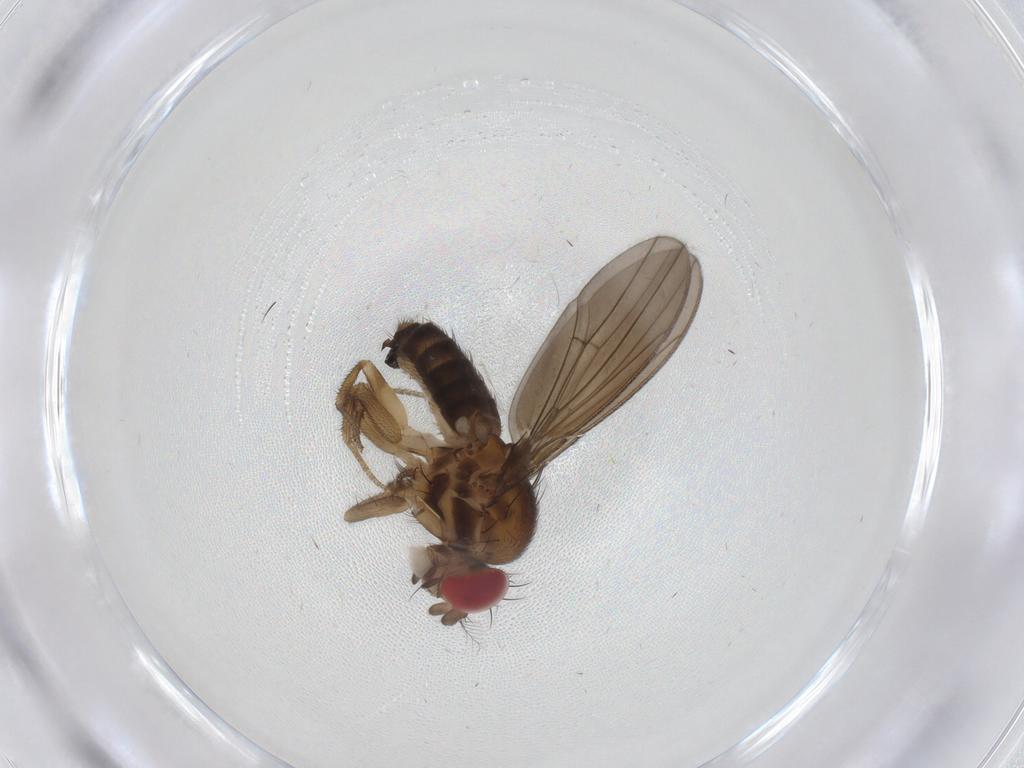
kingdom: Animalia
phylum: Arthropoda
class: Insecta
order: Diptera
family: Drosophilidae
